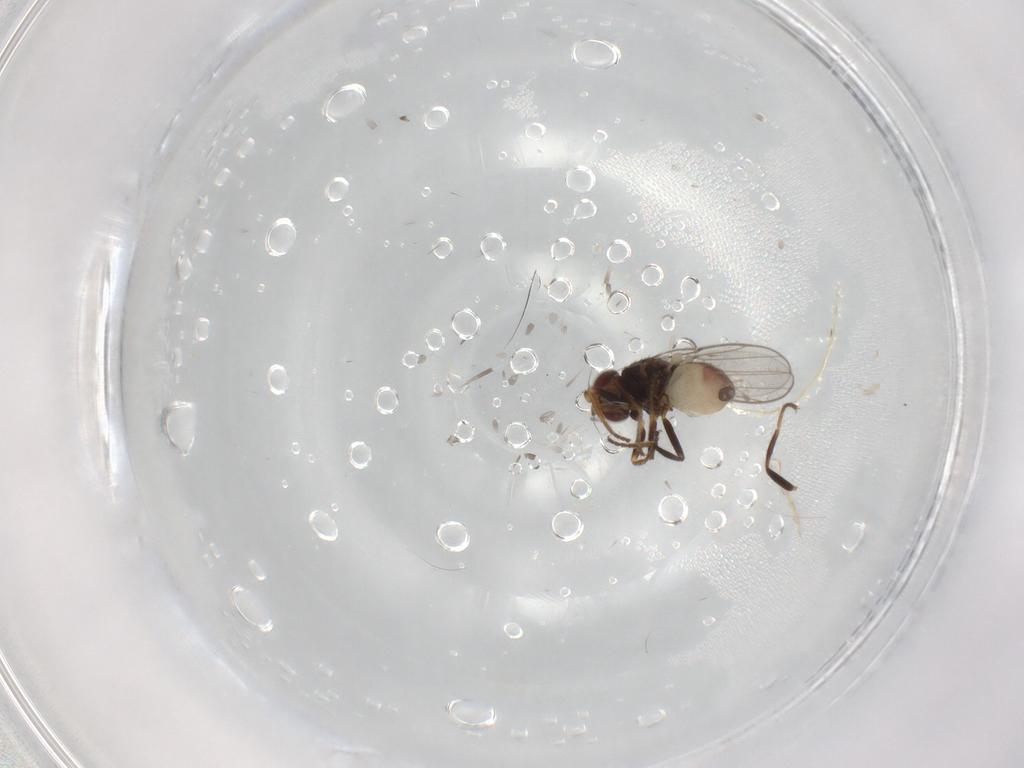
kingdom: Animalia
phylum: Arthropoda
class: Insecta
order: Diptera
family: Chloropidae
